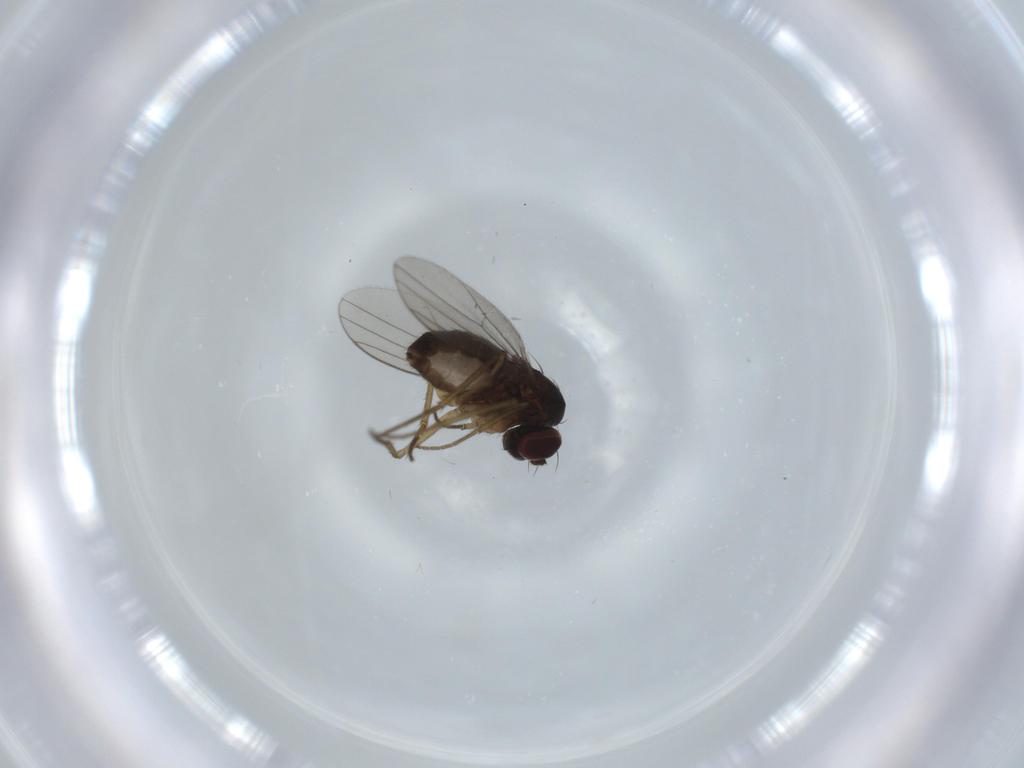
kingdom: Animalia
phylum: Arthropoda
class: Insecta
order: Diptera
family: Dolichopodidae
